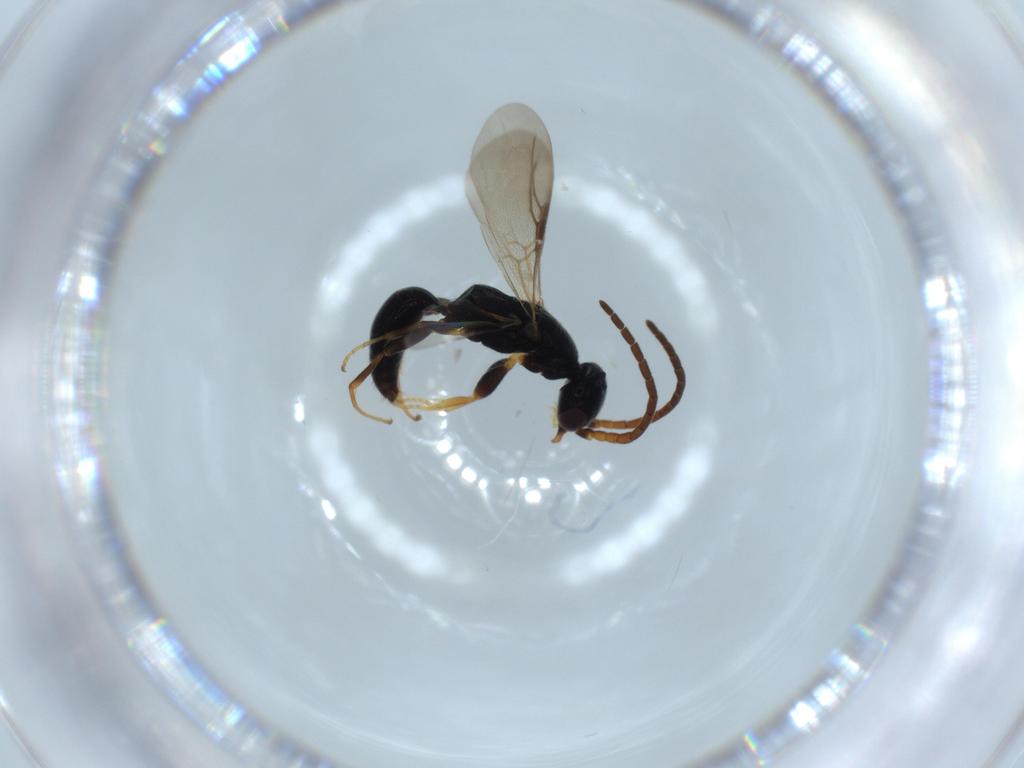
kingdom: Animalia
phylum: Arthropoda
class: Insecta
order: Hymenoptera
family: Bethylidae
